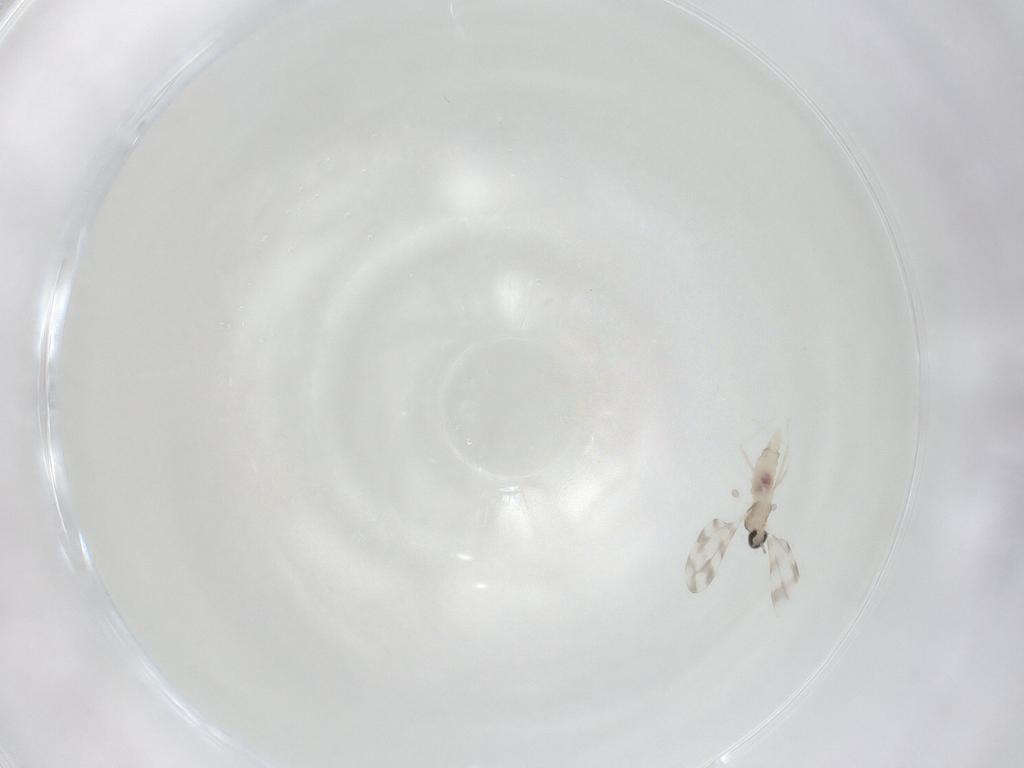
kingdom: Animalia
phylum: Arthropoda
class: Insecta
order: Diptera
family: Cecidomyiidae
